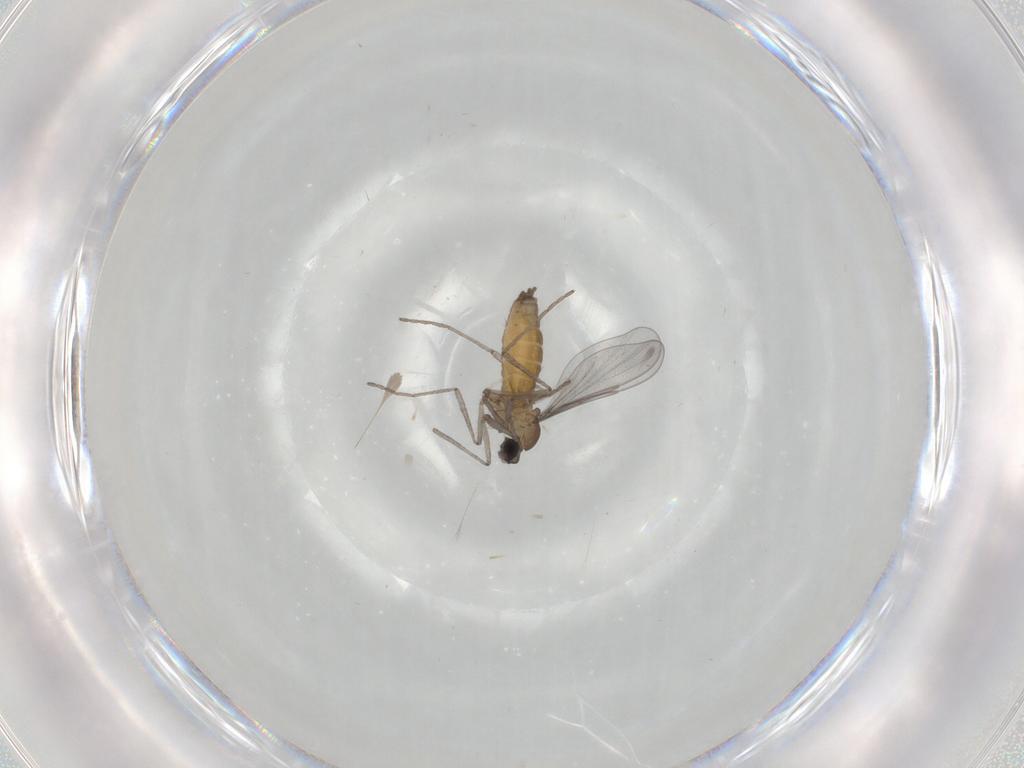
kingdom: Animalia
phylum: Arthropoda
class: Insecta
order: Diptera
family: Cecidomyiidae
